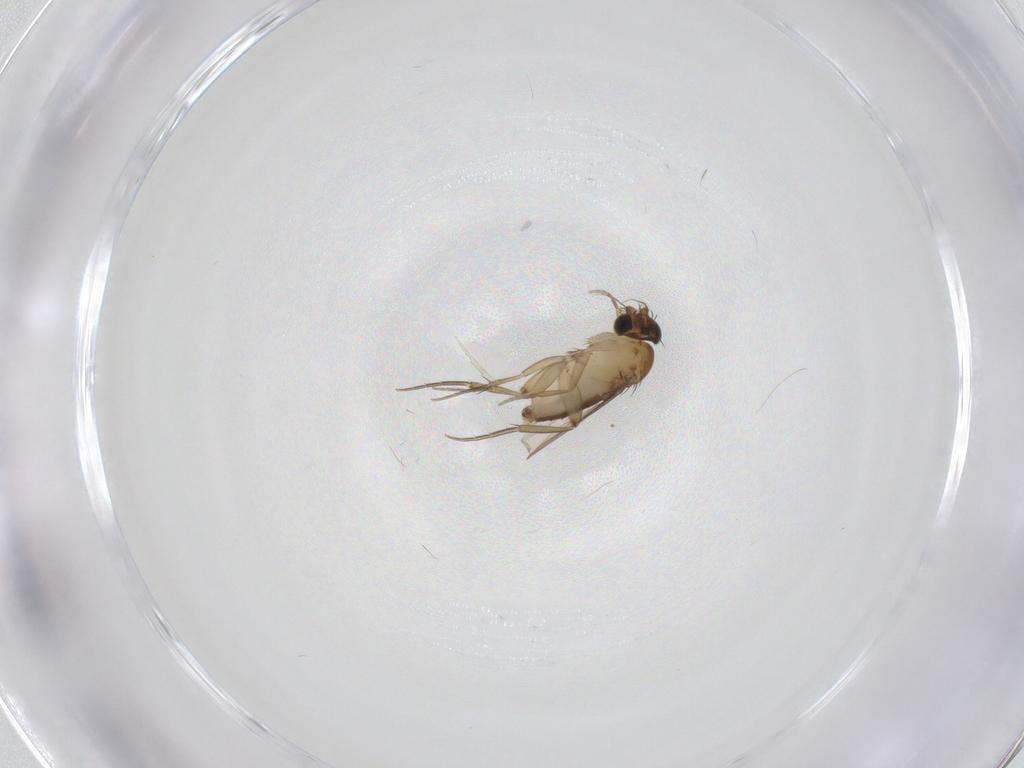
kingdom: Animalia
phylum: Arthropoda
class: Insecta
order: Diptera
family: Phoridae
